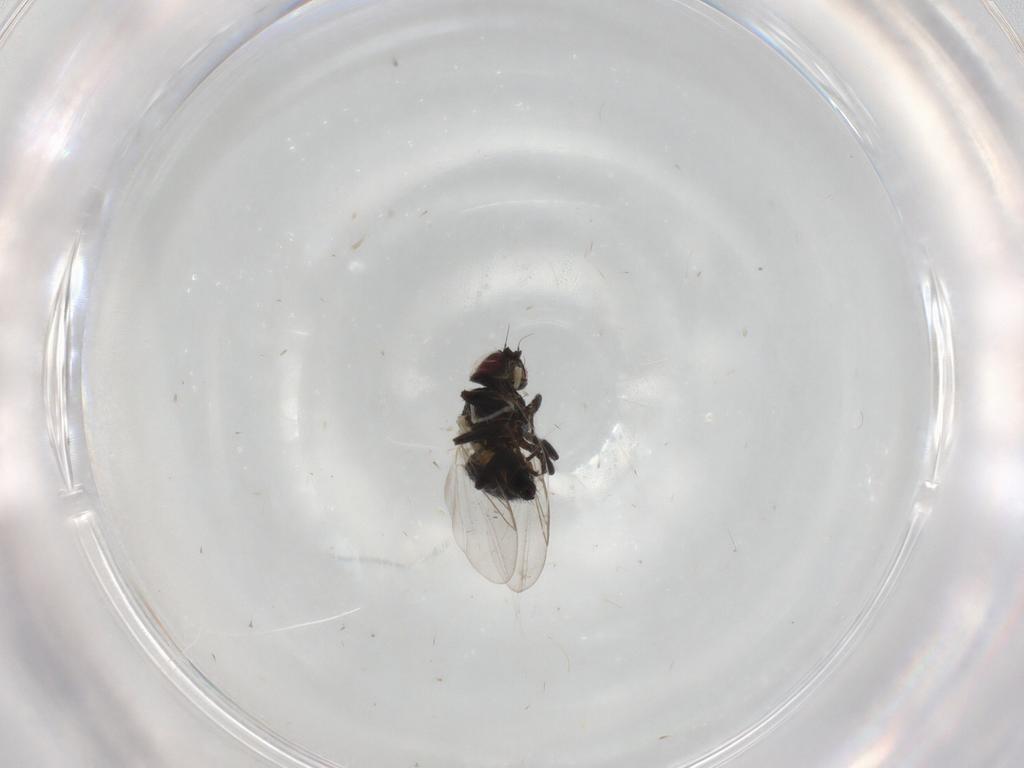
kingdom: Animalia
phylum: Arthropoda
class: Insecta
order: Diptera
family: Agromyzidae
